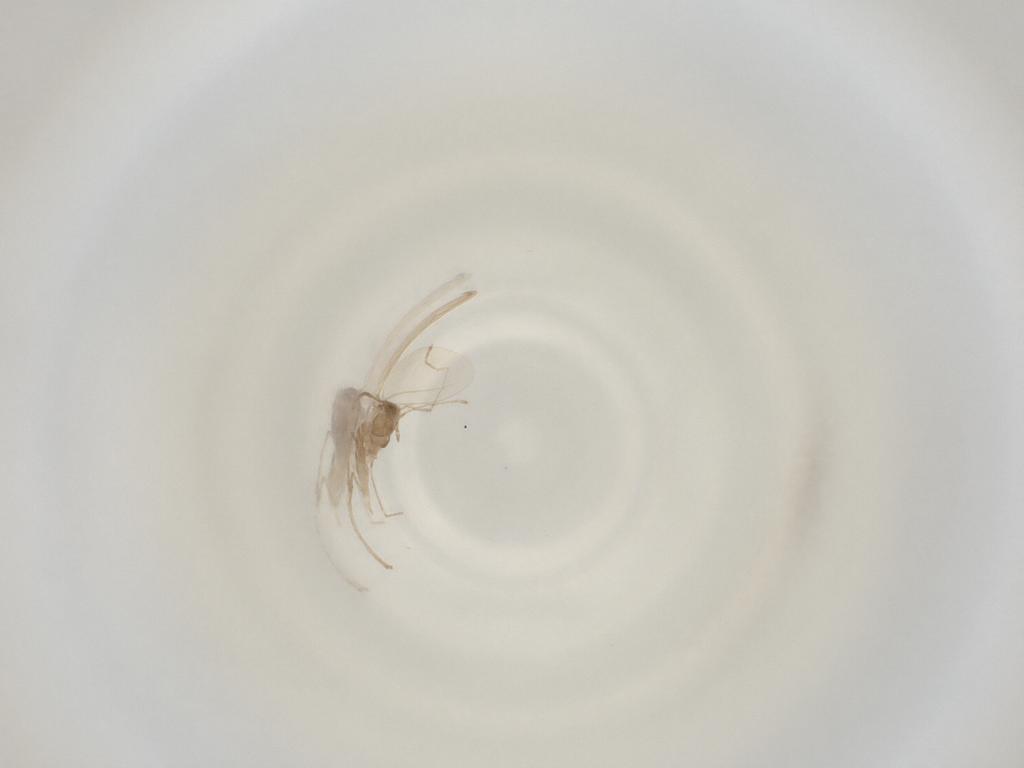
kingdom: Animalia
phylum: Arthropoda
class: Insecta
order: Diptera
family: Cecidomyiidae
